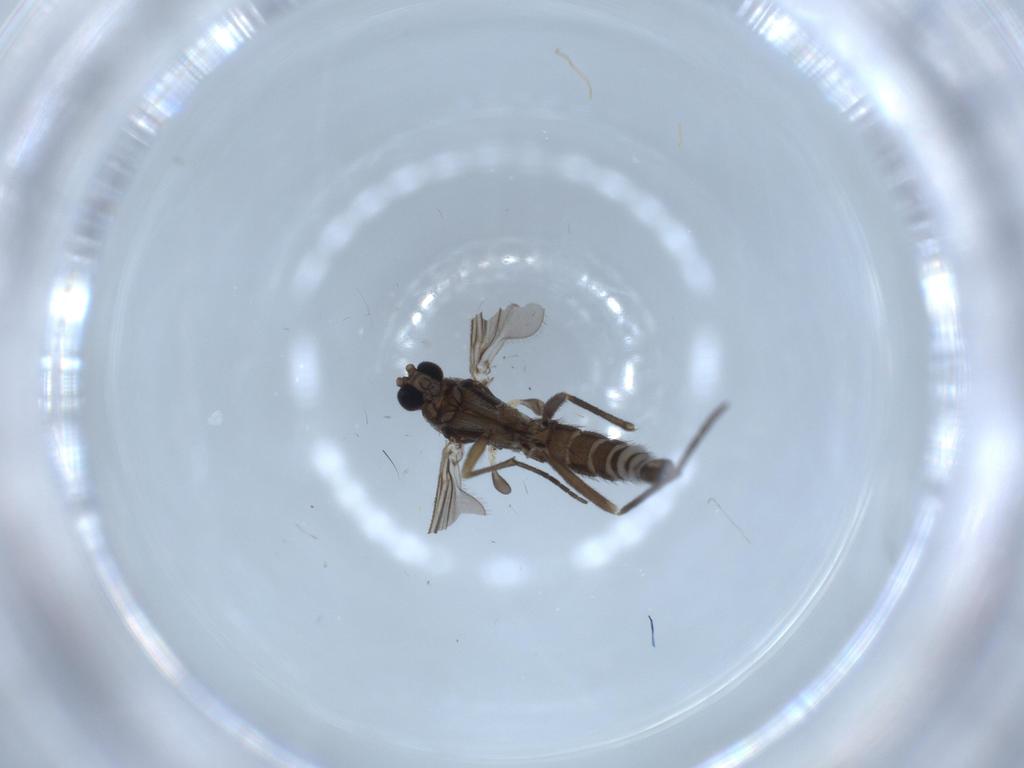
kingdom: Animalia
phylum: Arthropoda
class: Insecta
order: Diptera
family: Sciaridae
